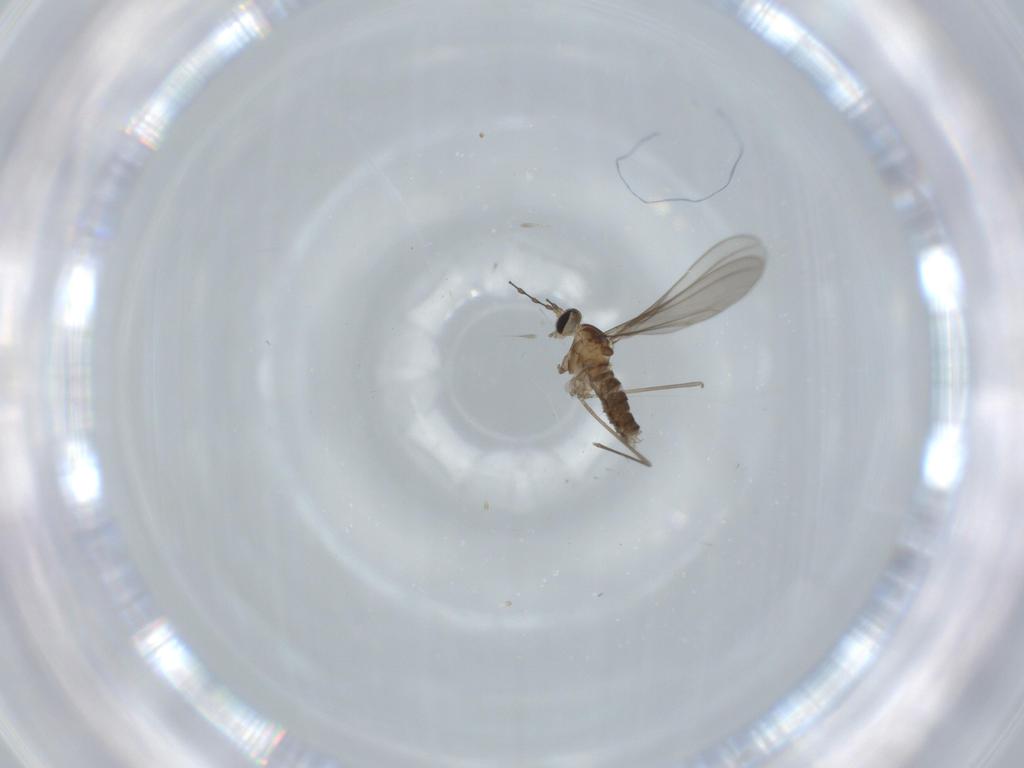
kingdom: Animalia
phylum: Arthropoda
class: Insecta
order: Diptera
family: Cecidomyiidae
